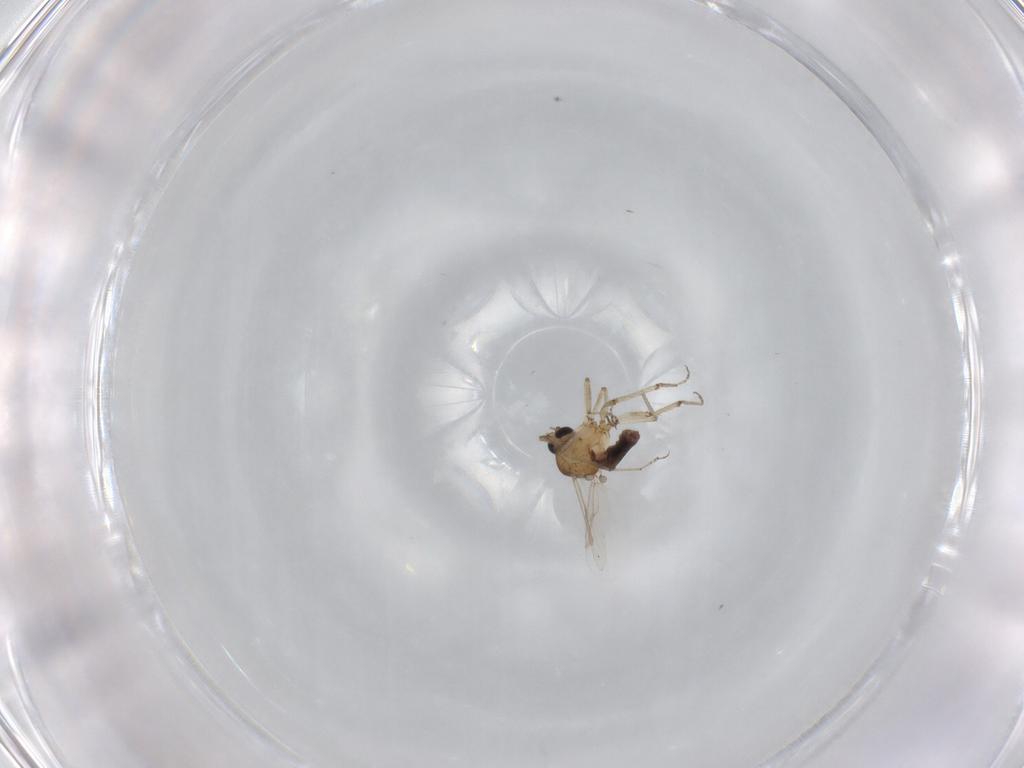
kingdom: Animalia
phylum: Arthropoda
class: Insecta
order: Diptera
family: Ceratopogonidae
